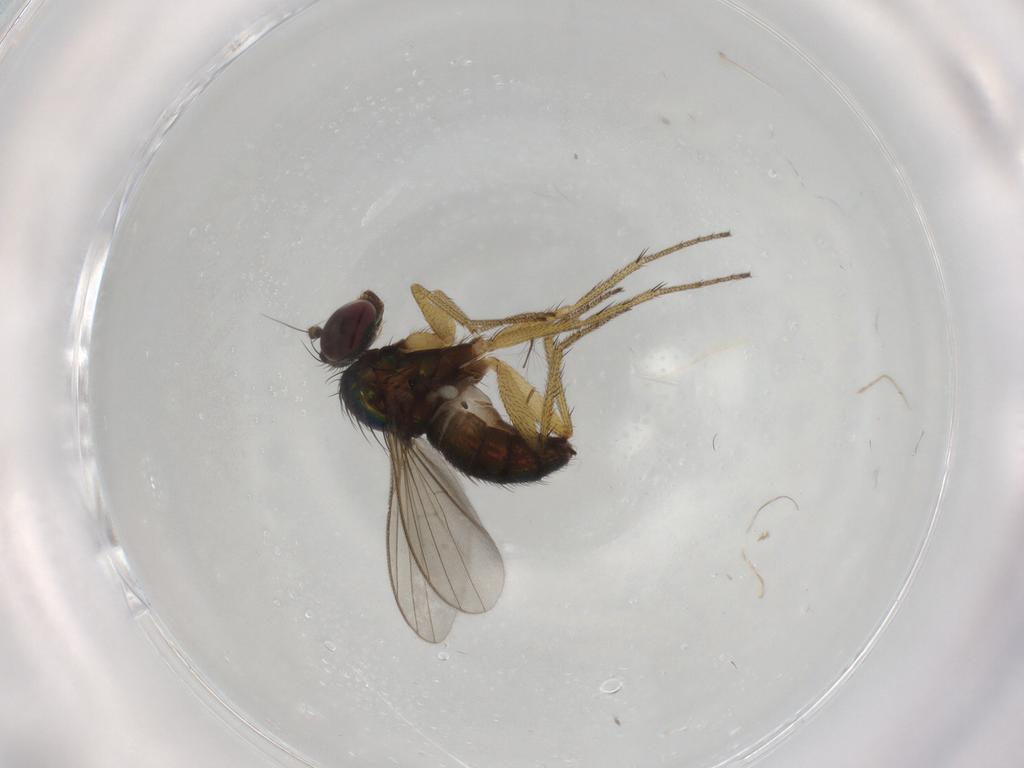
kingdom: Animalia
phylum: Arthropoda
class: Insecta
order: Diptera
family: Dolichopodidae
